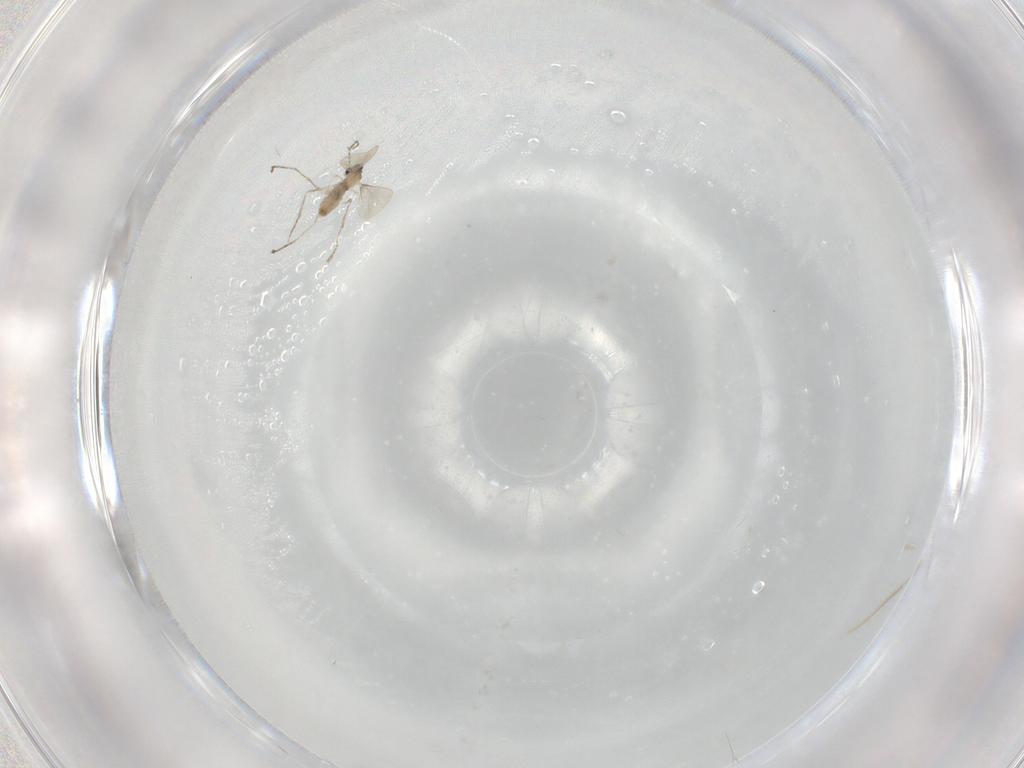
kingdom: Animalia
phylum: Arthropoda
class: Insecta
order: Diptera
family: Cecidomyiidae
